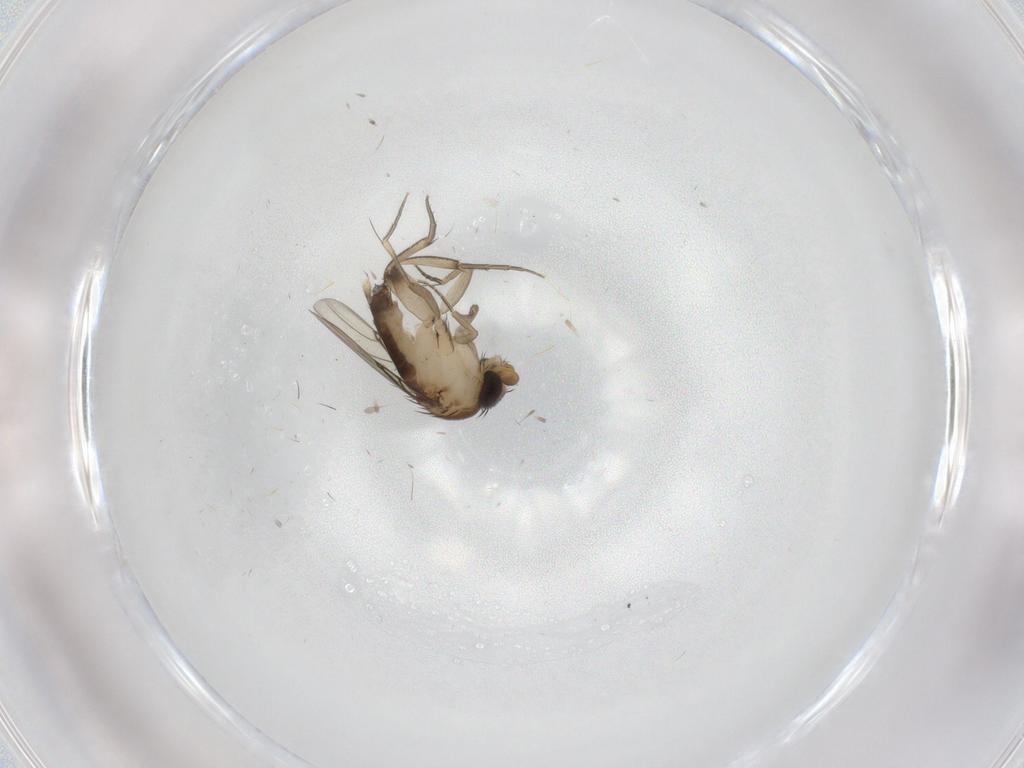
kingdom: Animalia
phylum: Arthropoda
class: Insecta
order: Diptera
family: Phoridae
